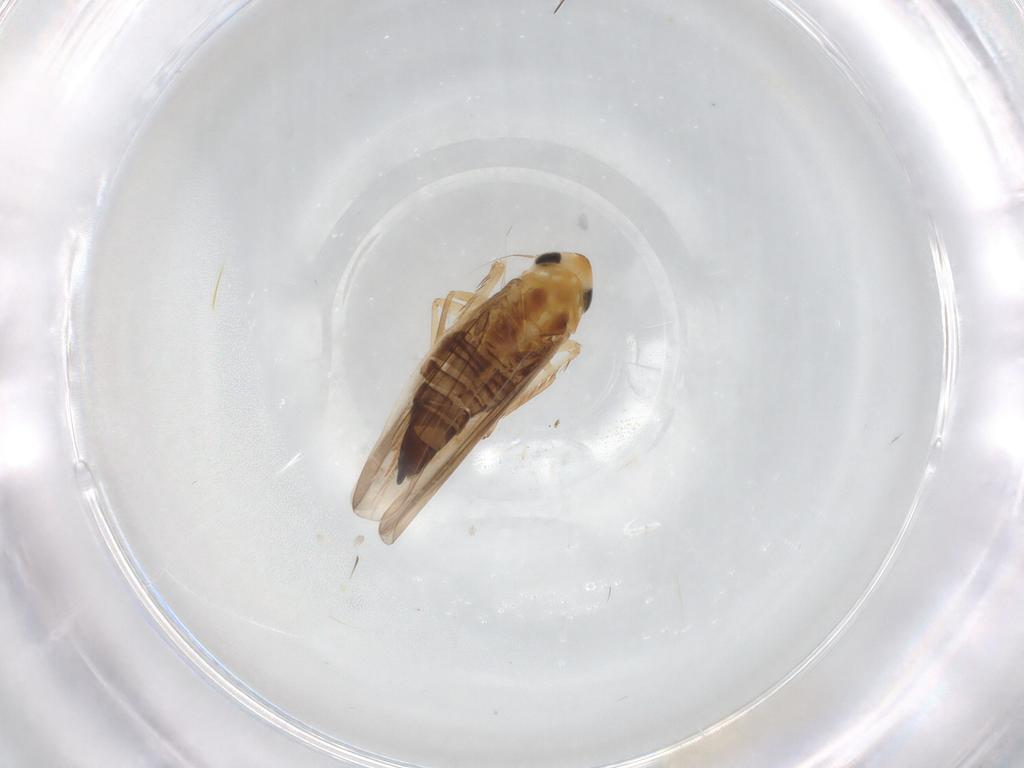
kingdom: Animalia
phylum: Arthropoda
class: Insecta
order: Hemiptera
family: Cicadellidae
